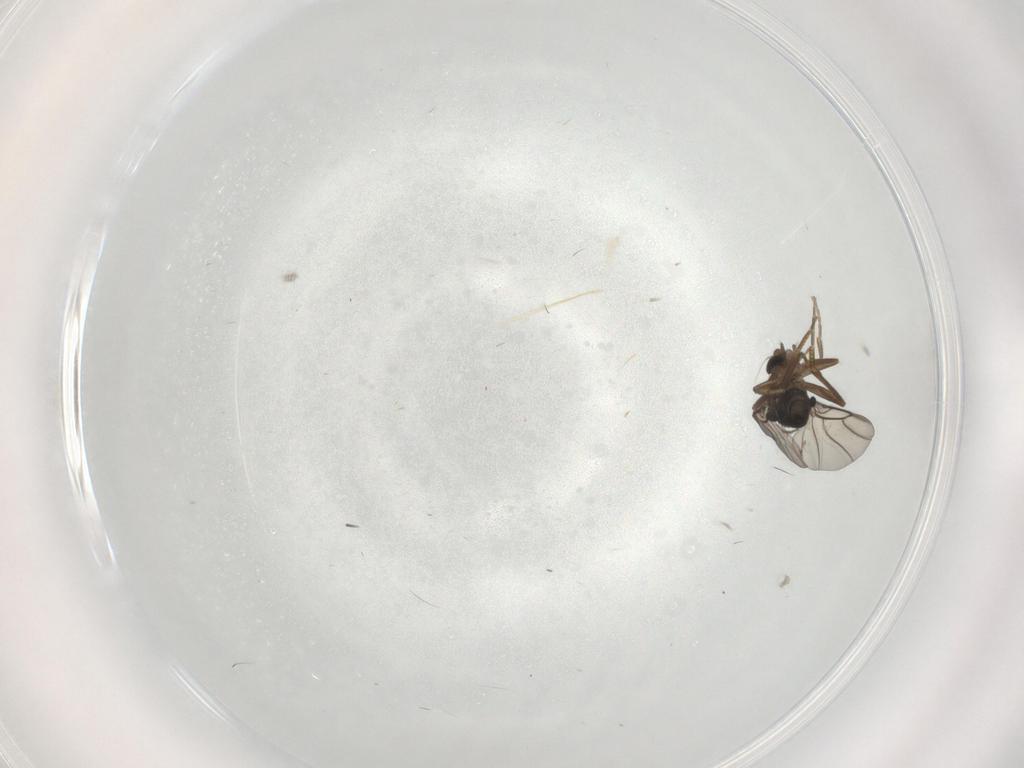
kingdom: Animalia
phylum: Arthropoda
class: Insecta
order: Diptera
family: Cecidomyiidae
